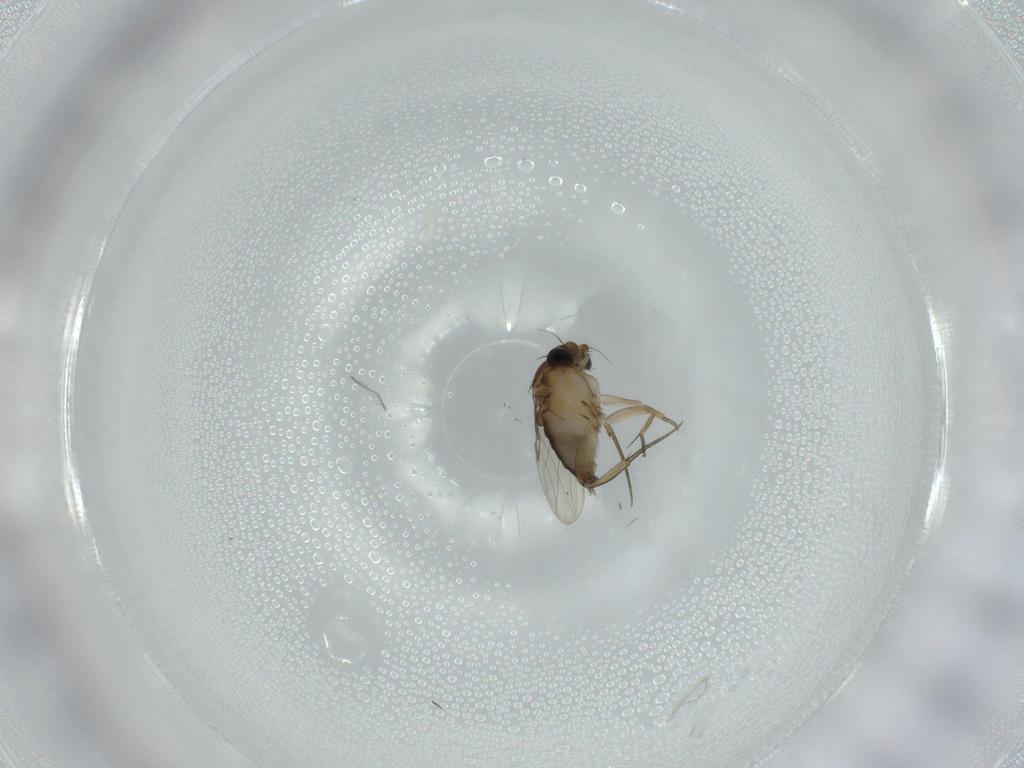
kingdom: Animalia
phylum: Arthropoda
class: Insecta
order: Diptera
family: Phoridae
